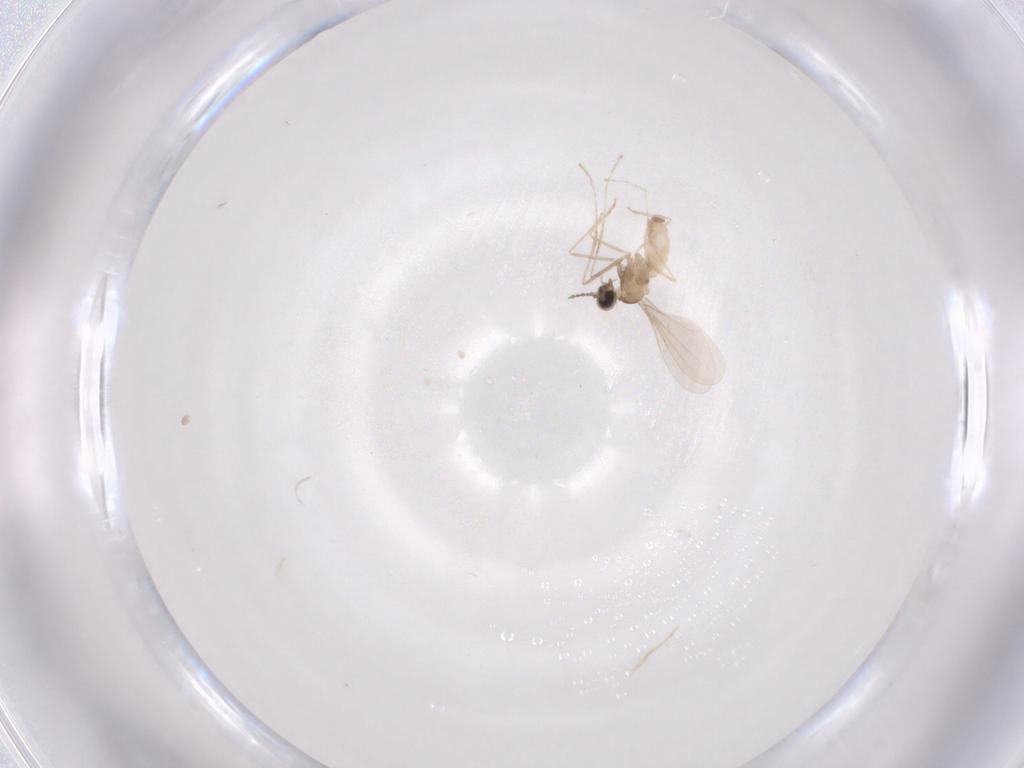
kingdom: Animalia
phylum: Arthropoda
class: Insecta
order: Diptera
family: Cecidomyiidae
